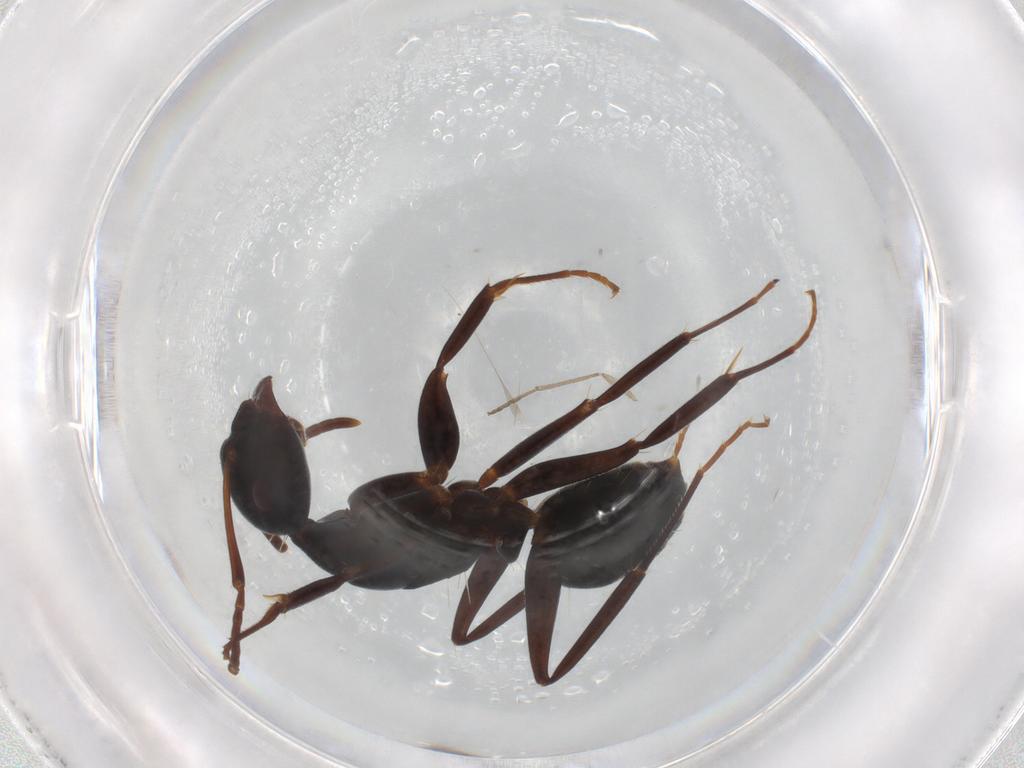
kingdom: Animalia
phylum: Arthropoda
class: Insecta
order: Hymenoptera
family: Formicidae
